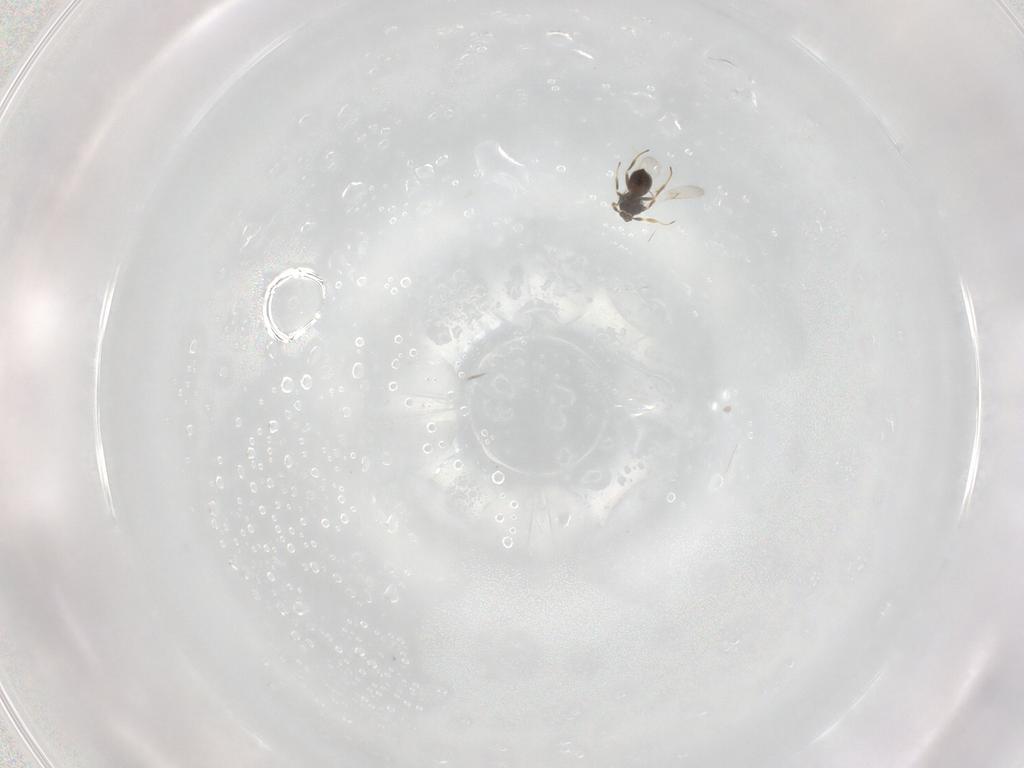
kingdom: Animalia
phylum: Arthropoda
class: Insecta
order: Hymenoptera
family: Scelionidae
